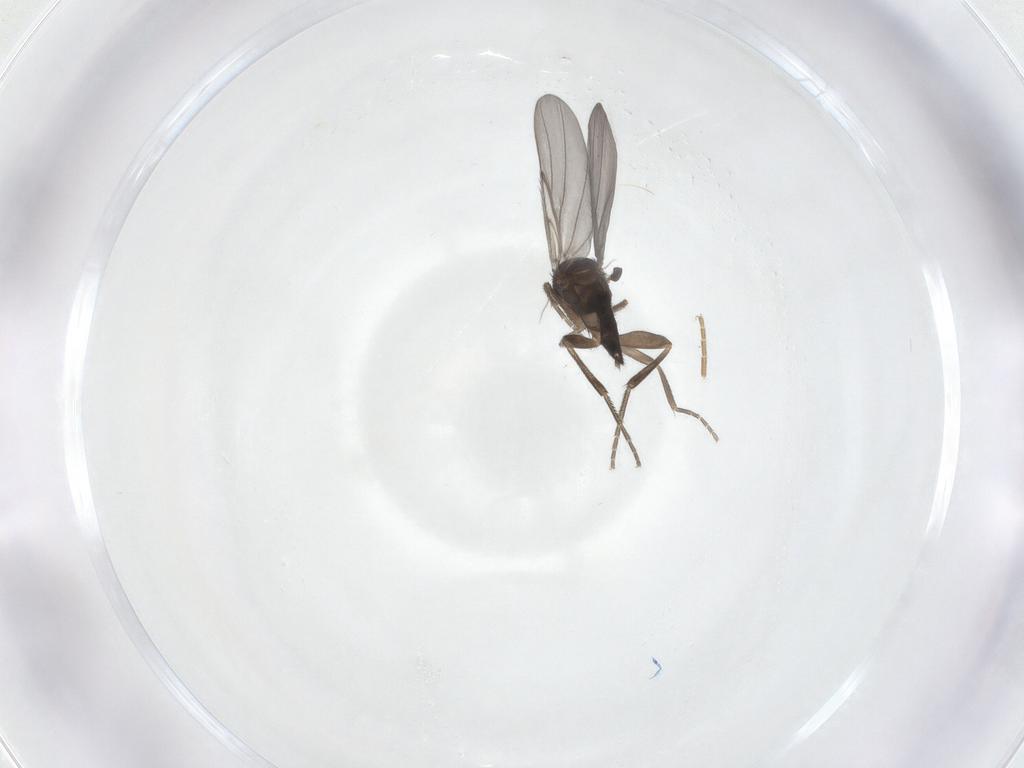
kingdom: Animalia
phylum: Arthropoda
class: Insecta
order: Diptera
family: Phoridae
